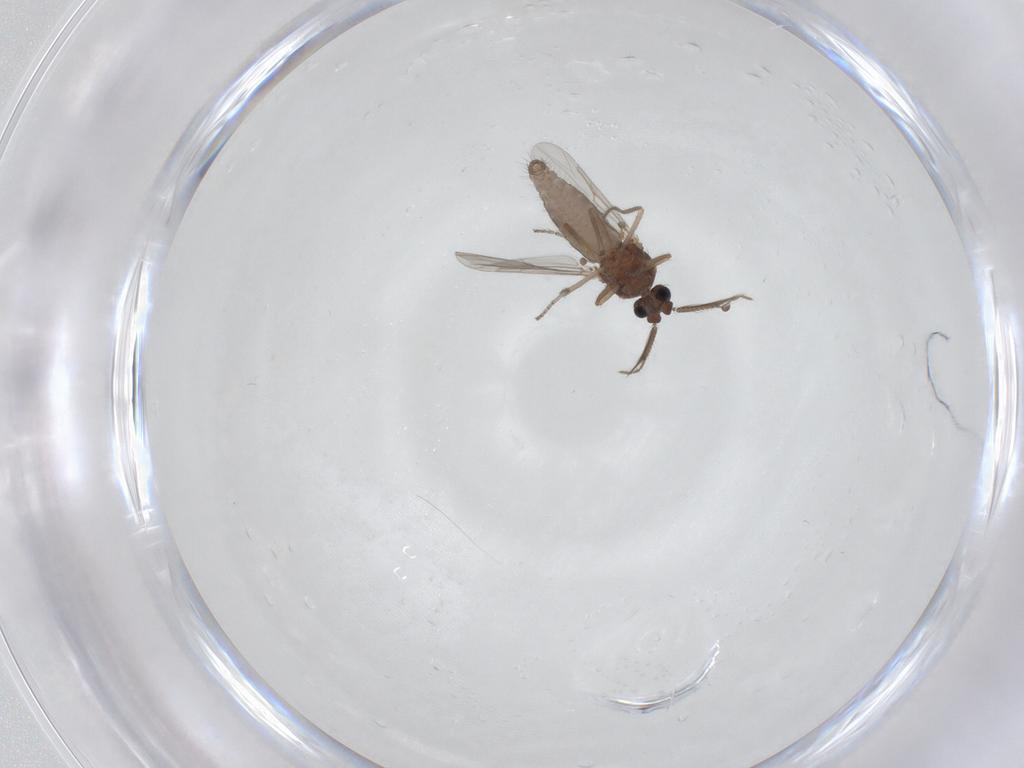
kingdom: Animalia
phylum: Arthropoda
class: Insecta
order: Diptera
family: Ceratopogonidae
